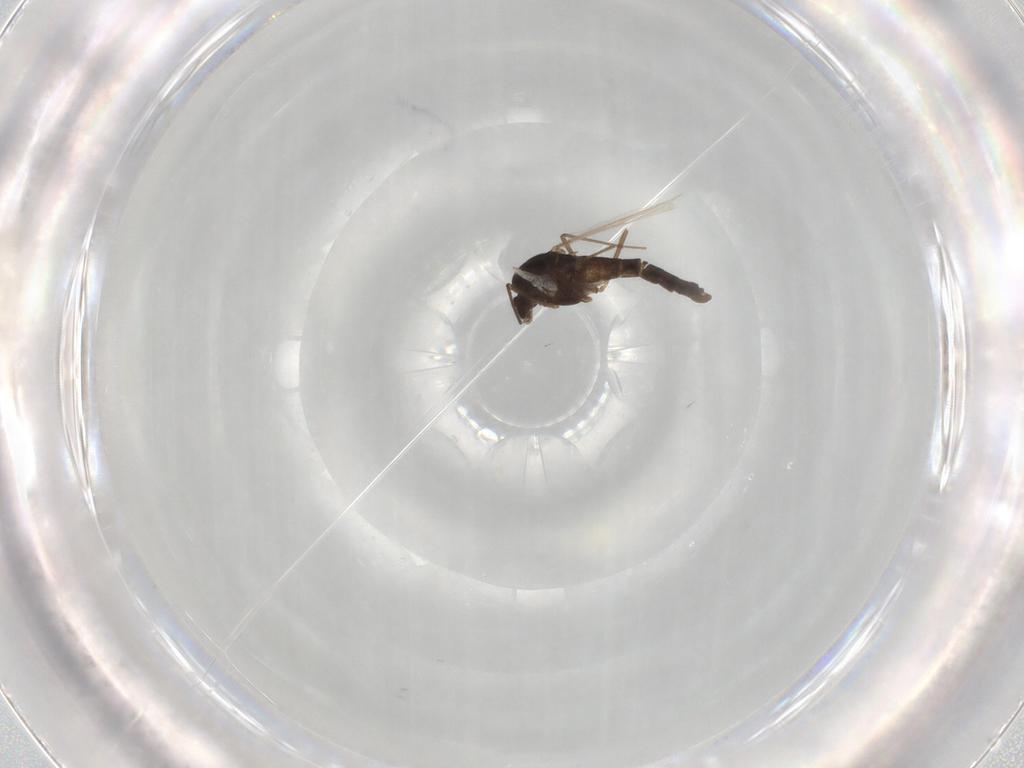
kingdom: Animalia
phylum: Arthropoda
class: Insecta
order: Diptera
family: Chironomidae
